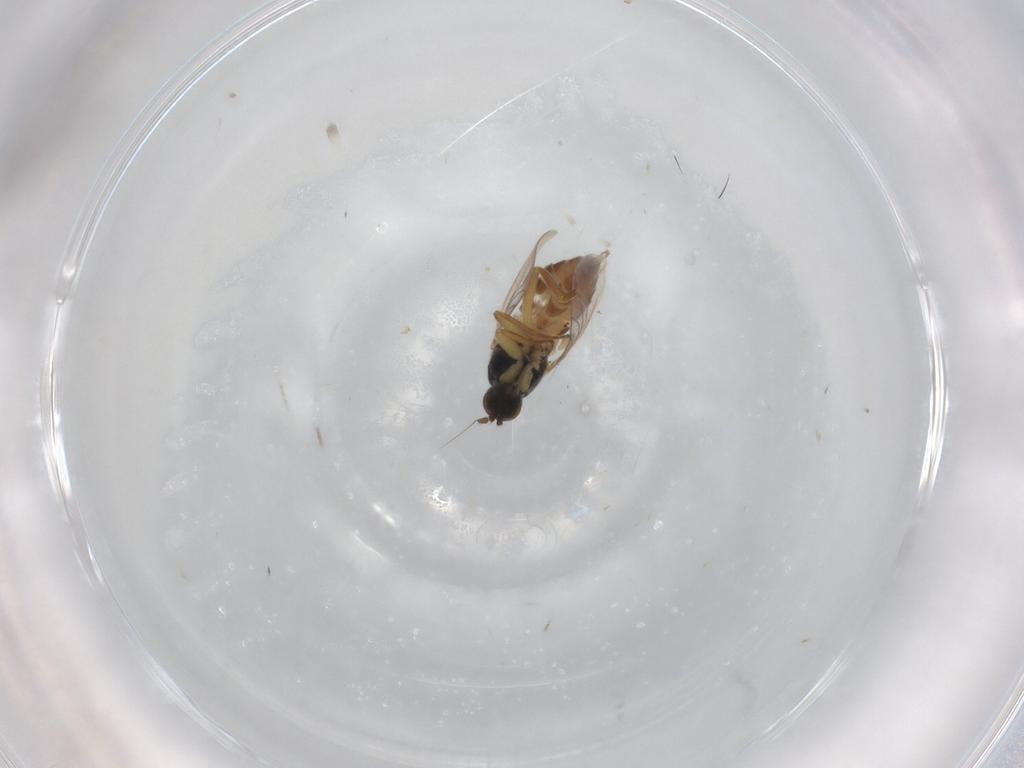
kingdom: Animalia
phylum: Arthropoda
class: Insecta
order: Diptera
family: Hybotidae
